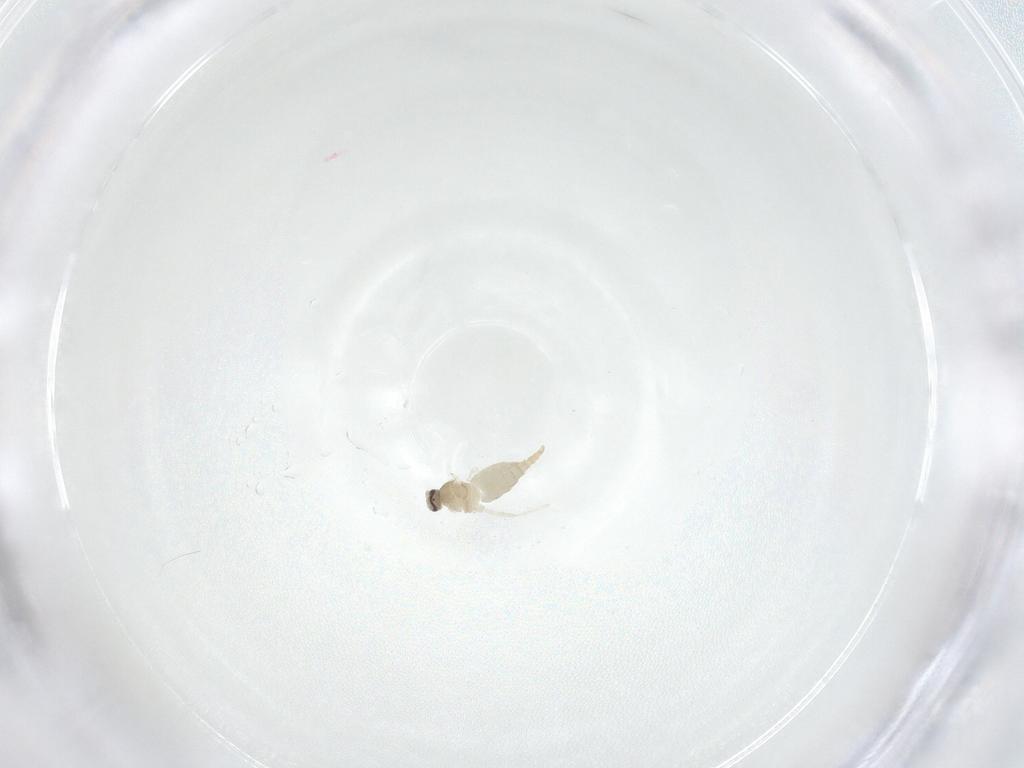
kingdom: Animalia
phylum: Arthropoda
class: Insecta
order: Diptera
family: Cecidomyiidae
